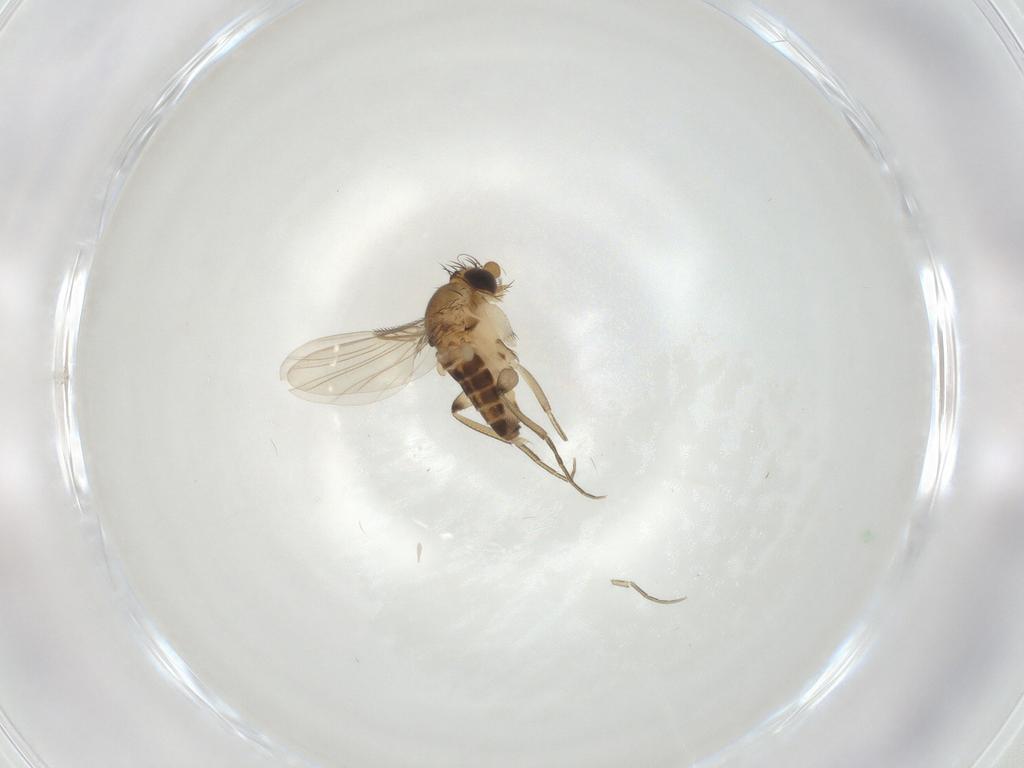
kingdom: Animalia
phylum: Arthropoda
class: Insecta
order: Diptera
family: Phoridae
